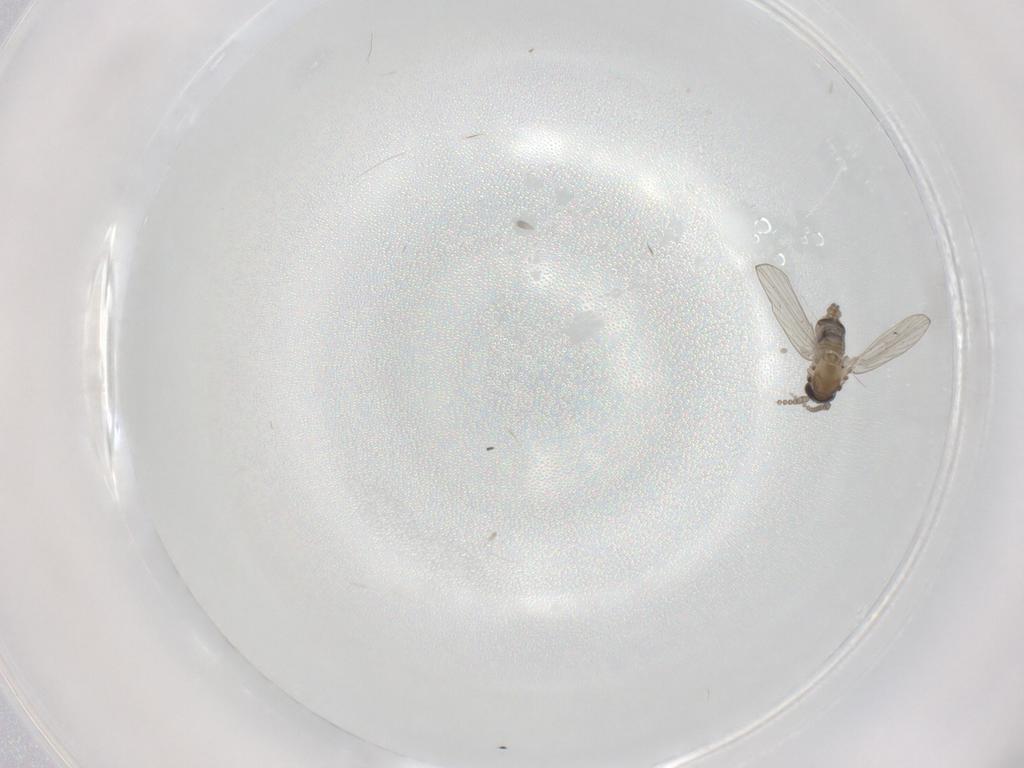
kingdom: Animalia
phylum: Arthropoda
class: Insecta
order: Diptera
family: Psychodidae
